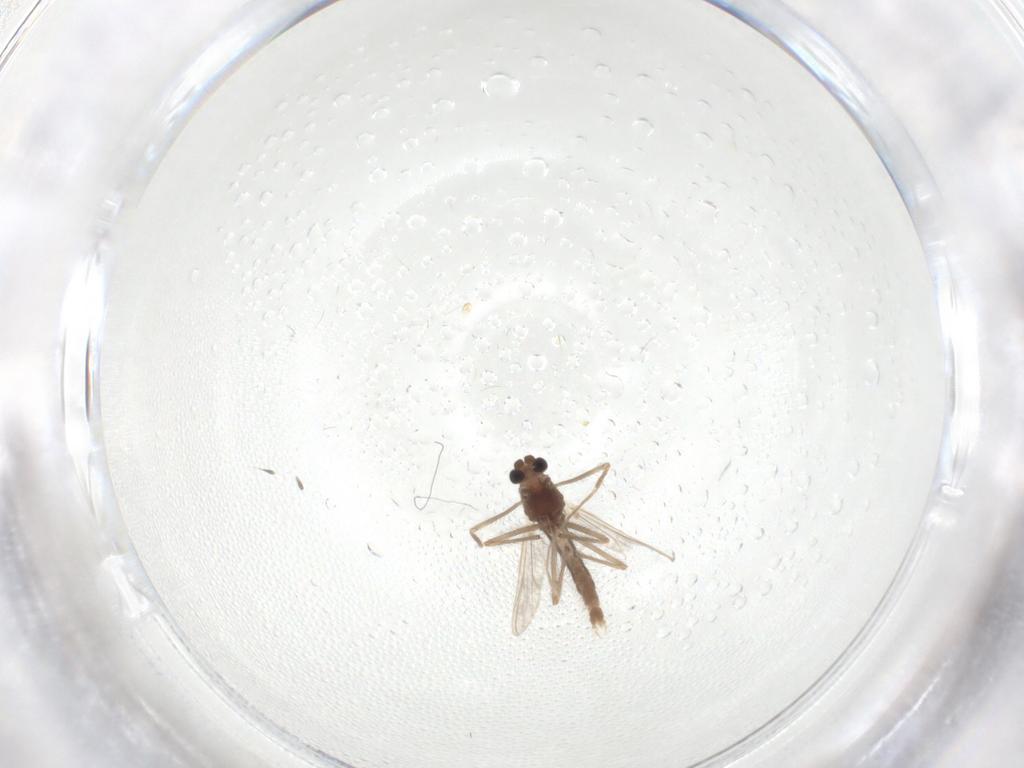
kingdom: Animalia
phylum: Arthropoda
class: Insecta
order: Diptera
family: Chironomidae
